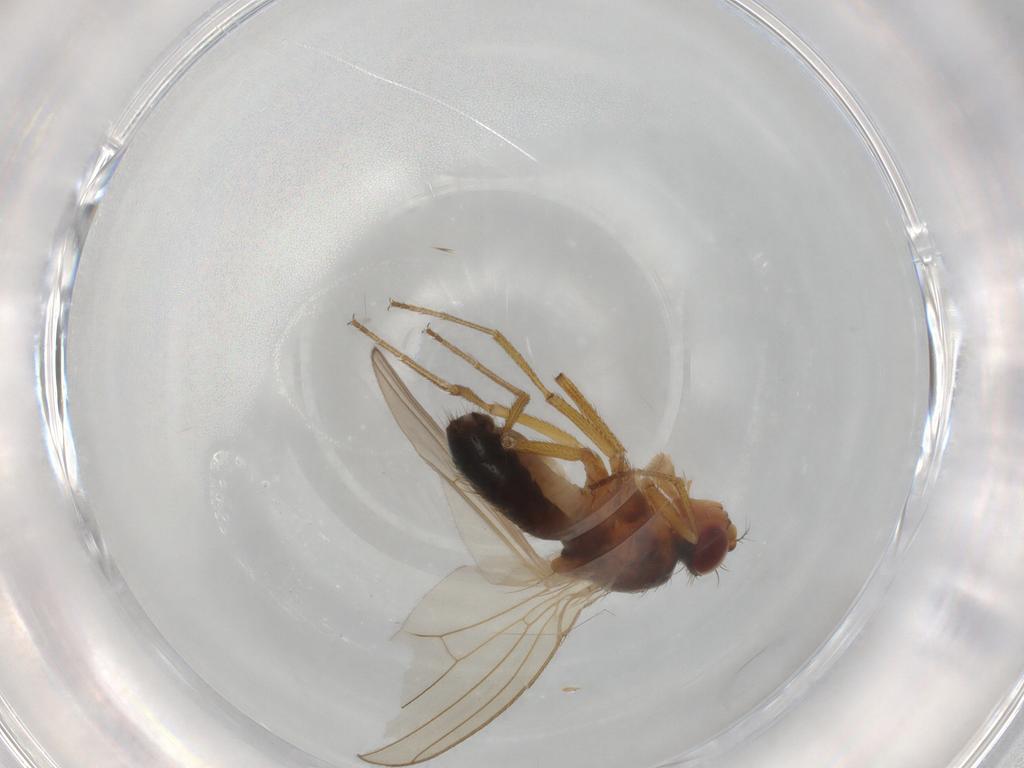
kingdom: Animalia
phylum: Arthropoda
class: Insecta
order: Diptera
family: Drosophilidae
